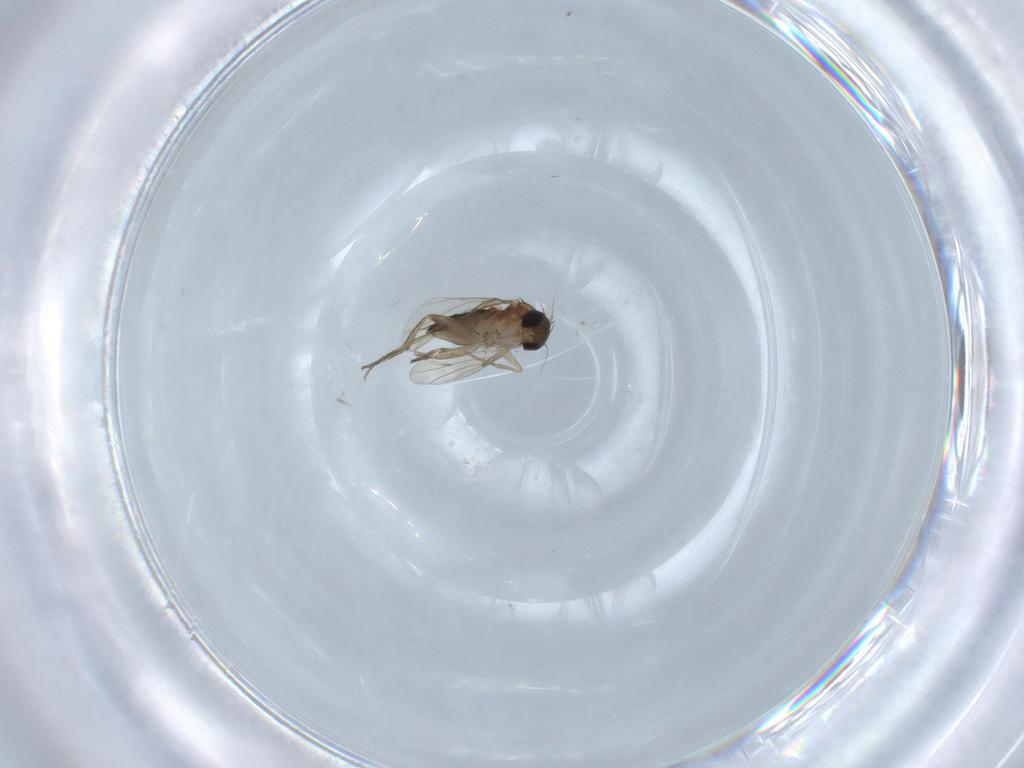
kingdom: Animalia
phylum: Arthropoda
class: Insecta
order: Diptera
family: Phoridae
